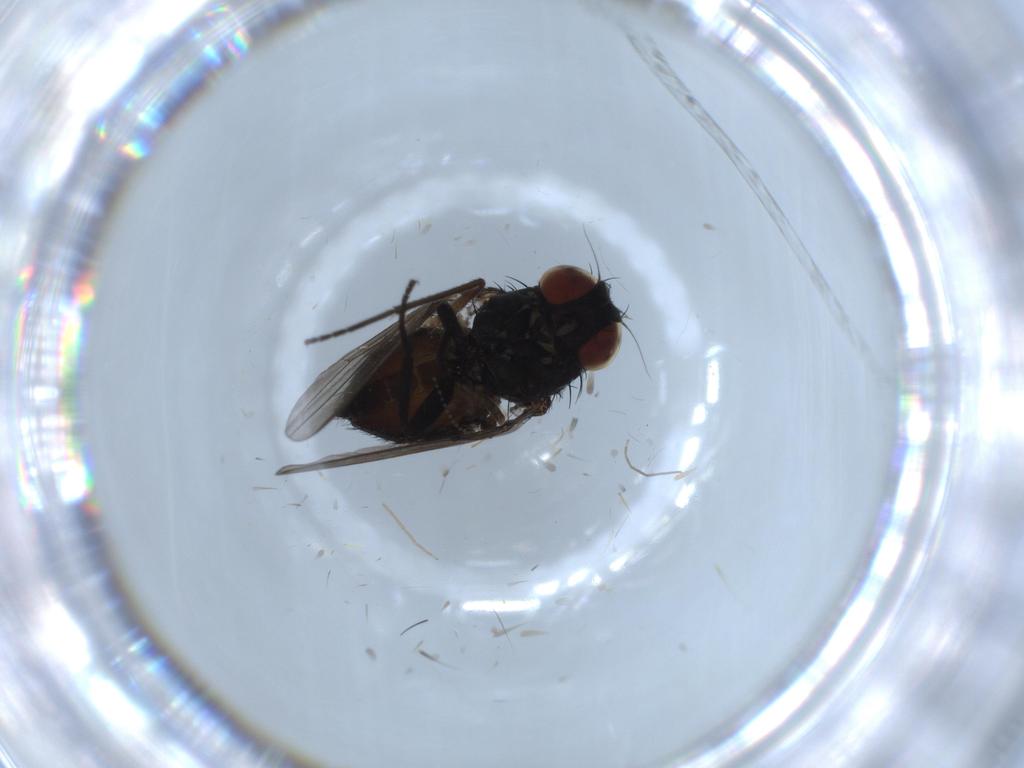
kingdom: Animalia
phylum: Arthropoda
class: Insecta
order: Diptera
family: Milichiidae
